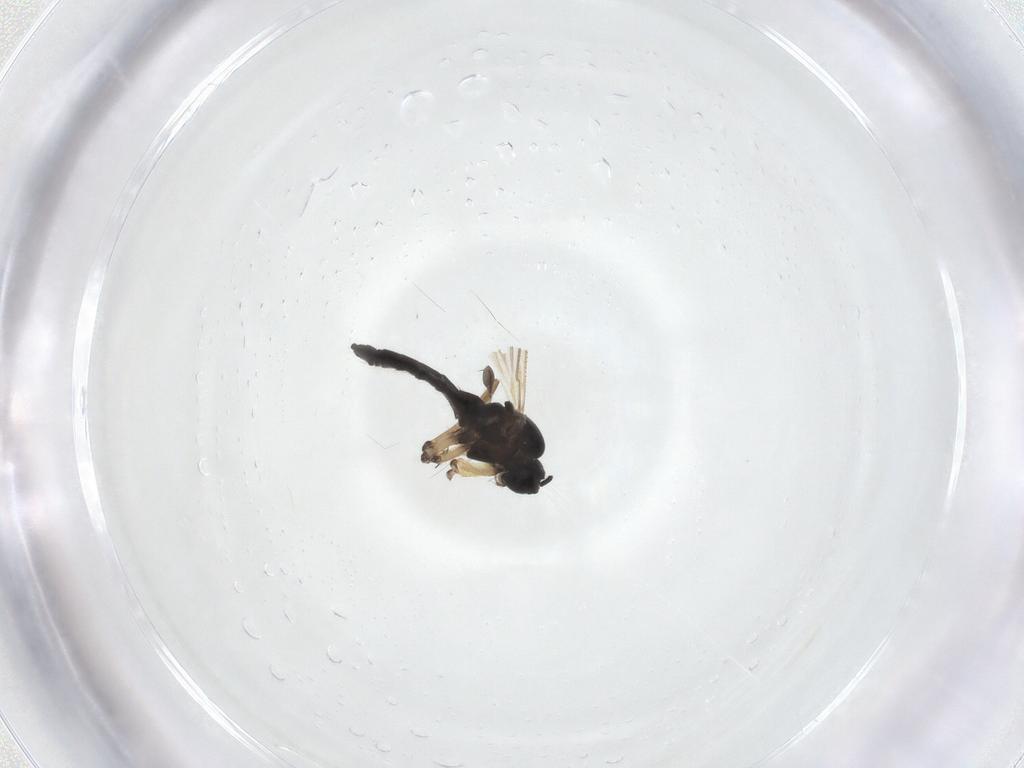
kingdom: Animalia
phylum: Arthropoda
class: Insecta
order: Diptera
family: Sciaridae
